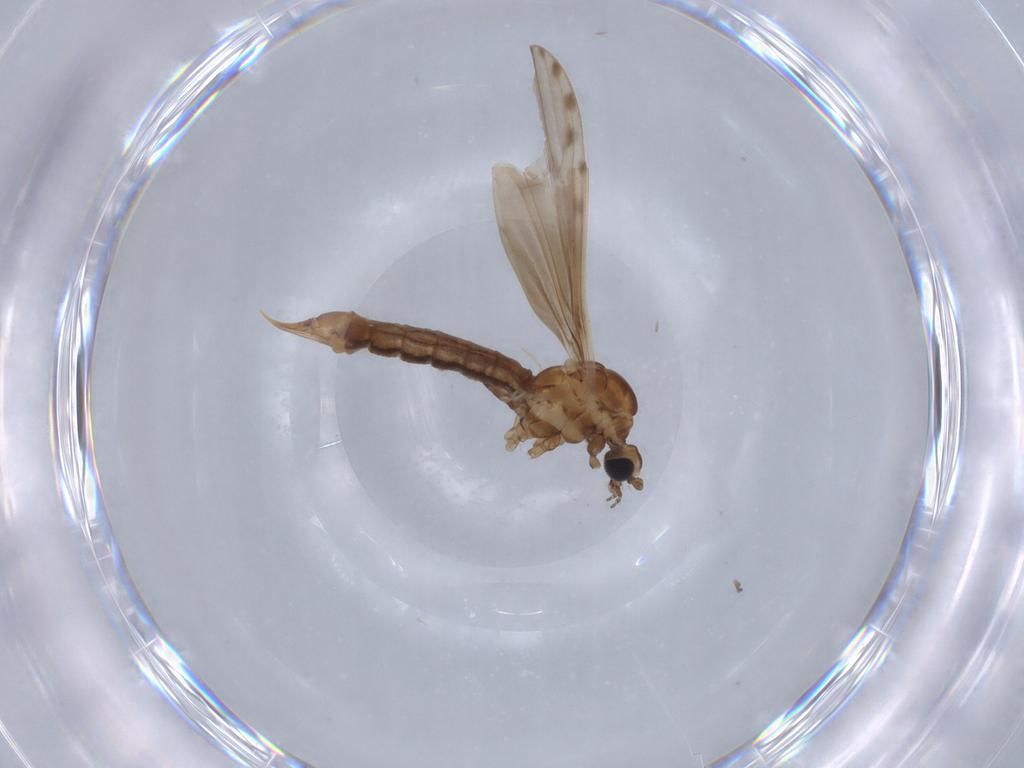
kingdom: Animalia
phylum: Arthropoda
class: Insecta
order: Diptera
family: Limoniidae
